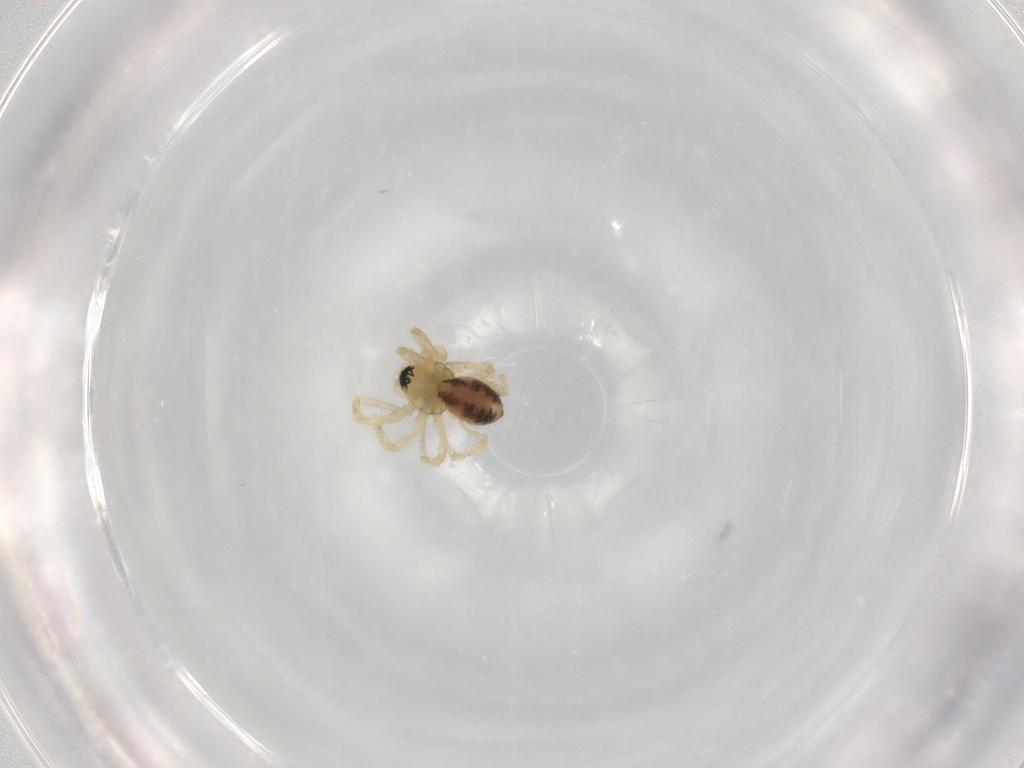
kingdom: Animalia
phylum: Arthropoda
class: Arachnida
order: Araneae
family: Linyphiidae
